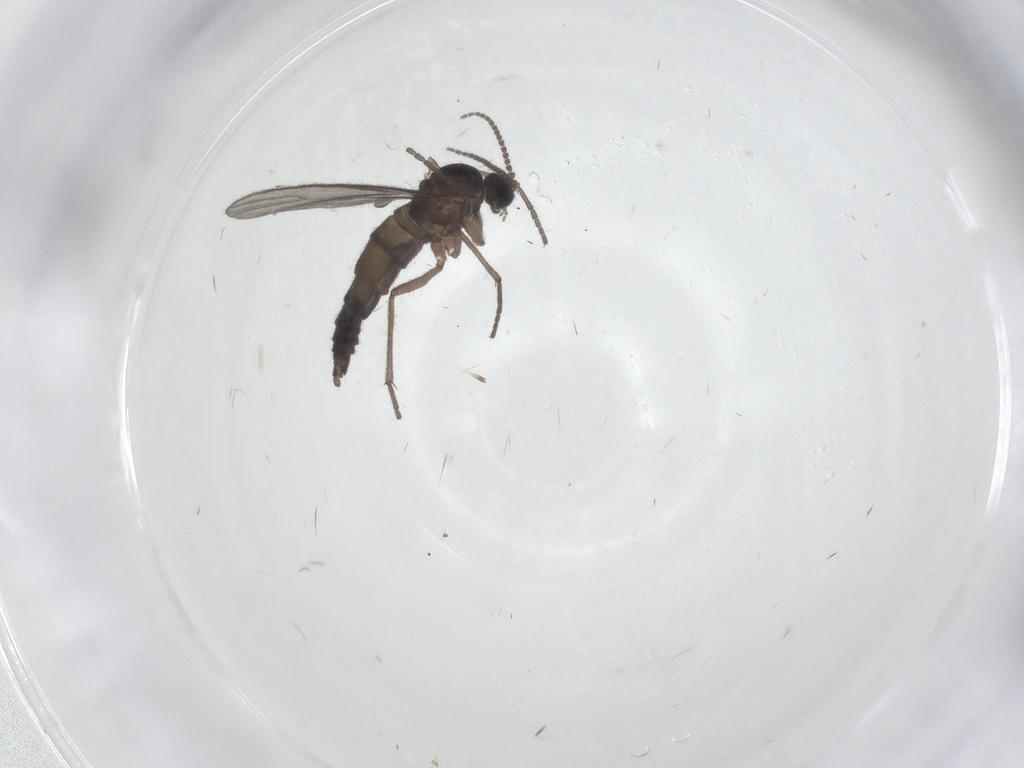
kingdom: Animalia
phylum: Arthropoda
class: Insecta
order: Diptera
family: Sciaridae
